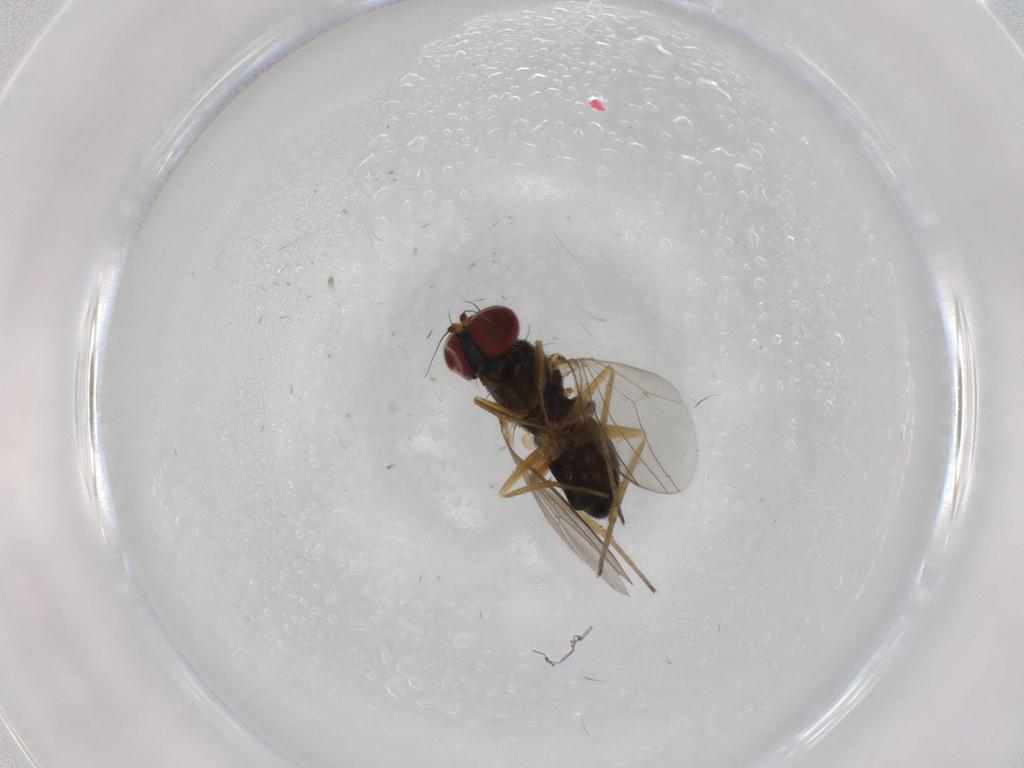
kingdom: Animalia
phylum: Arthropoda
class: Insecta
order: Diptera
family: Dolichopodidae
